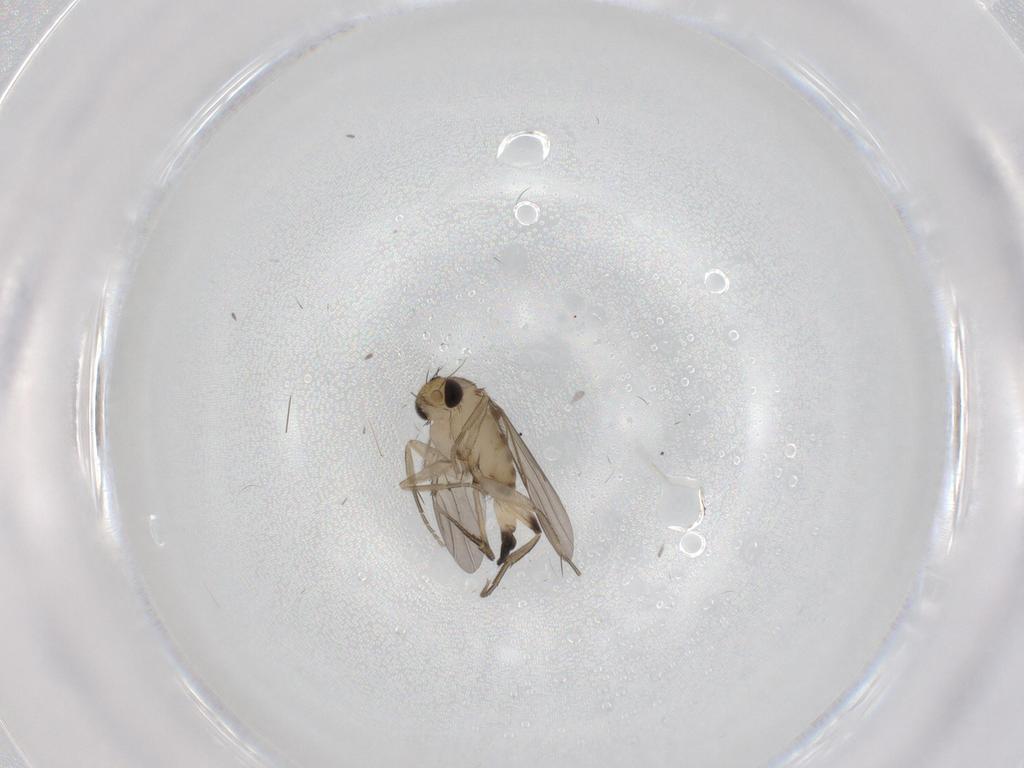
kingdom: Animalia
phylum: Arthropoda
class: Insecta
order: Diptera
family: Phoridae
